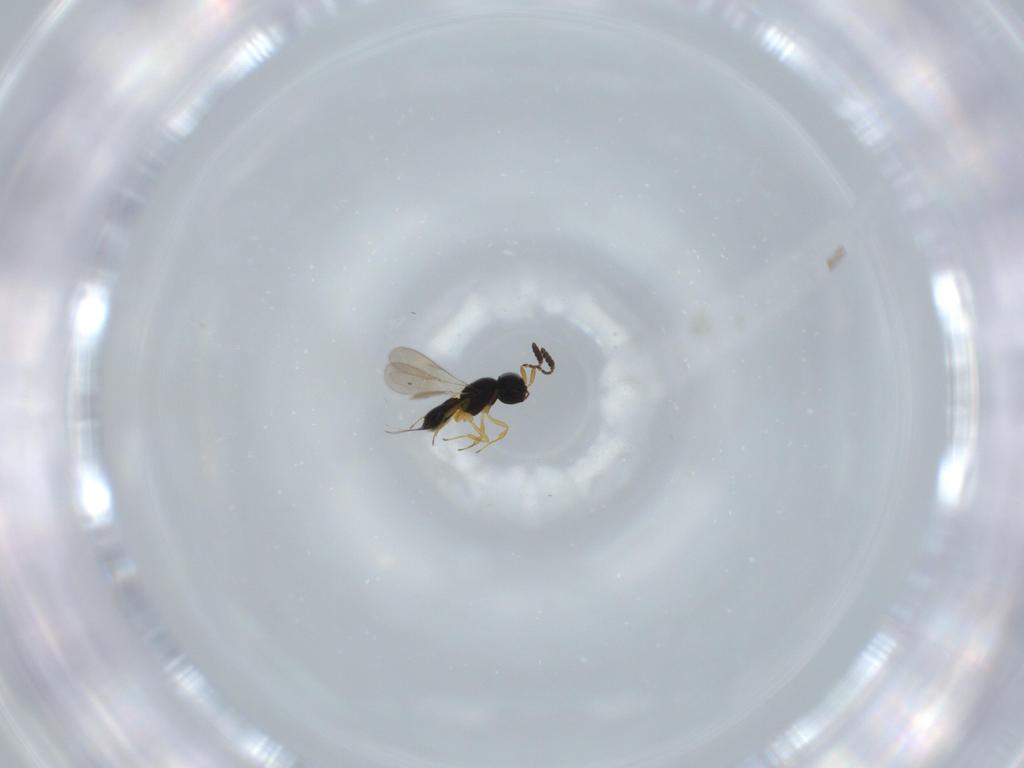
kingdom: Animalia
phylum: Arthropoda
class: Insecta
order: Hymenoptera
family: Scelionidae
